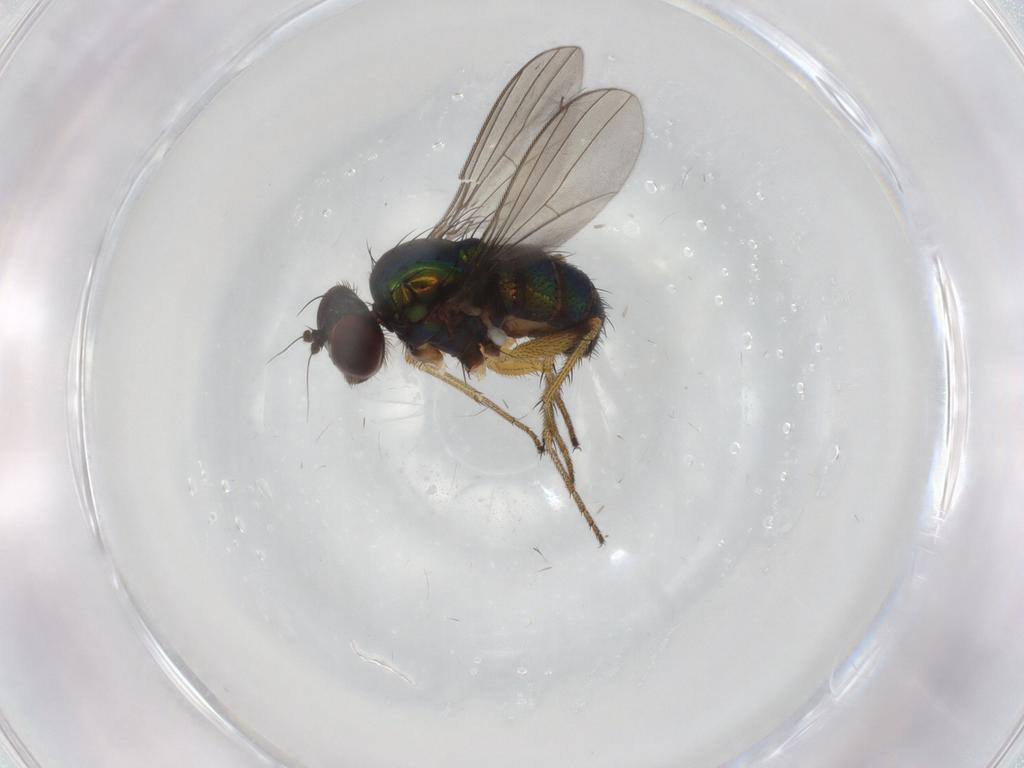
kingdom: Animalia
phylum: Arthropoda
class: Insecta
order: Diptera
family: Dolichopodidae
